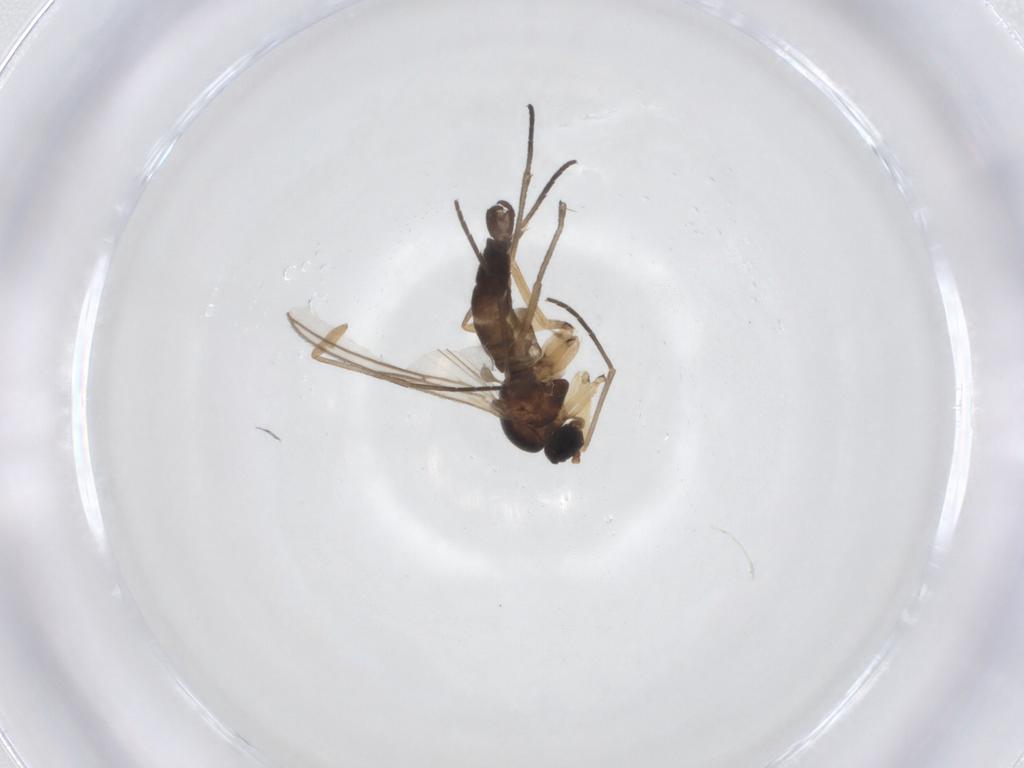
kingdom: Animalia
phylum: Arthropoda
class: Insecta
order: Diptera
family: Sciaridae
